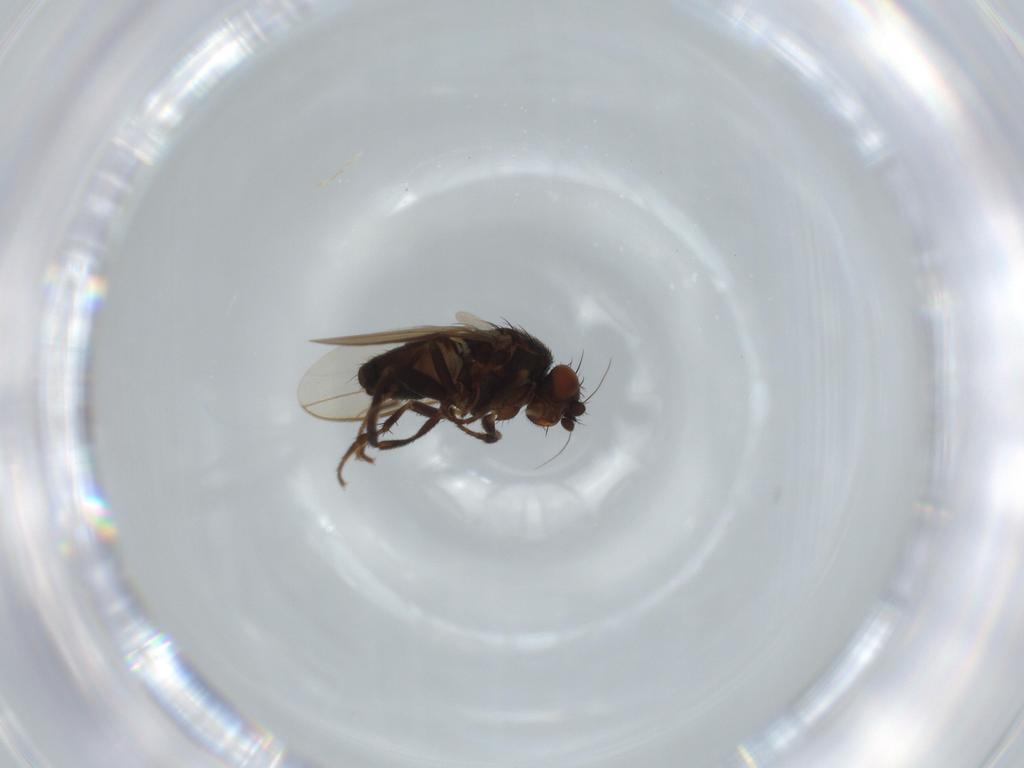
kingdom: Animalia
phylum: Arthropoda
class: Insecta
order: Diptera
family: Sphaeroceridae
